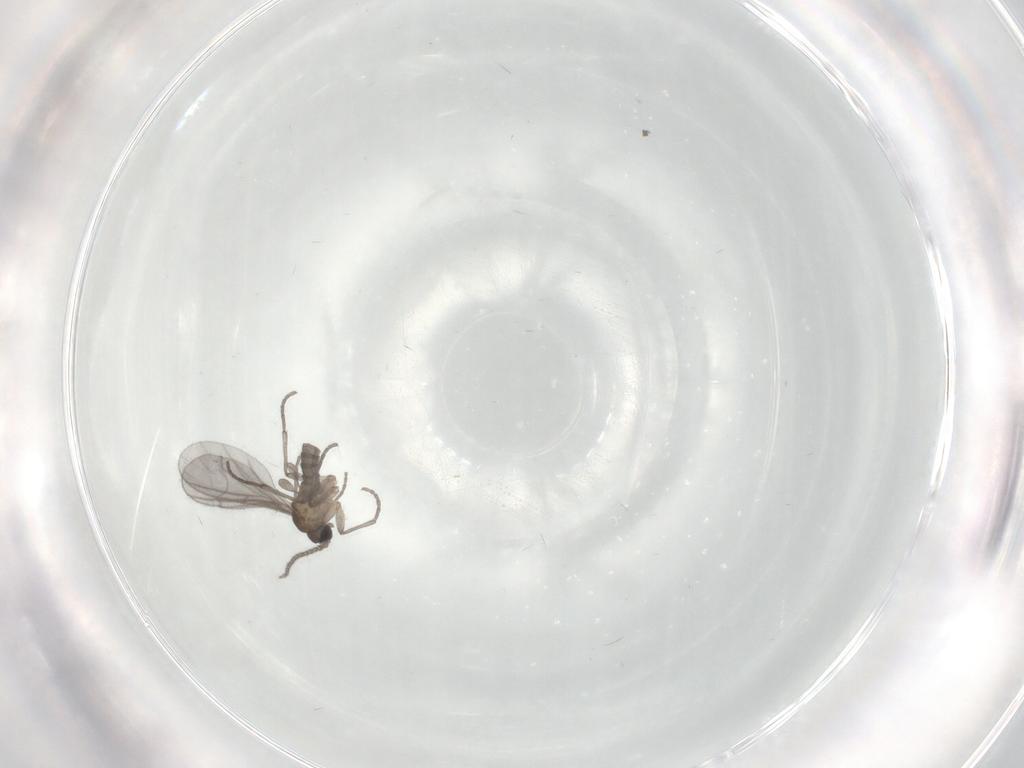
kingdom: Animalia
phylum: Arthropoda
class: Insecta
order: Diptera
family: Sciaridae
